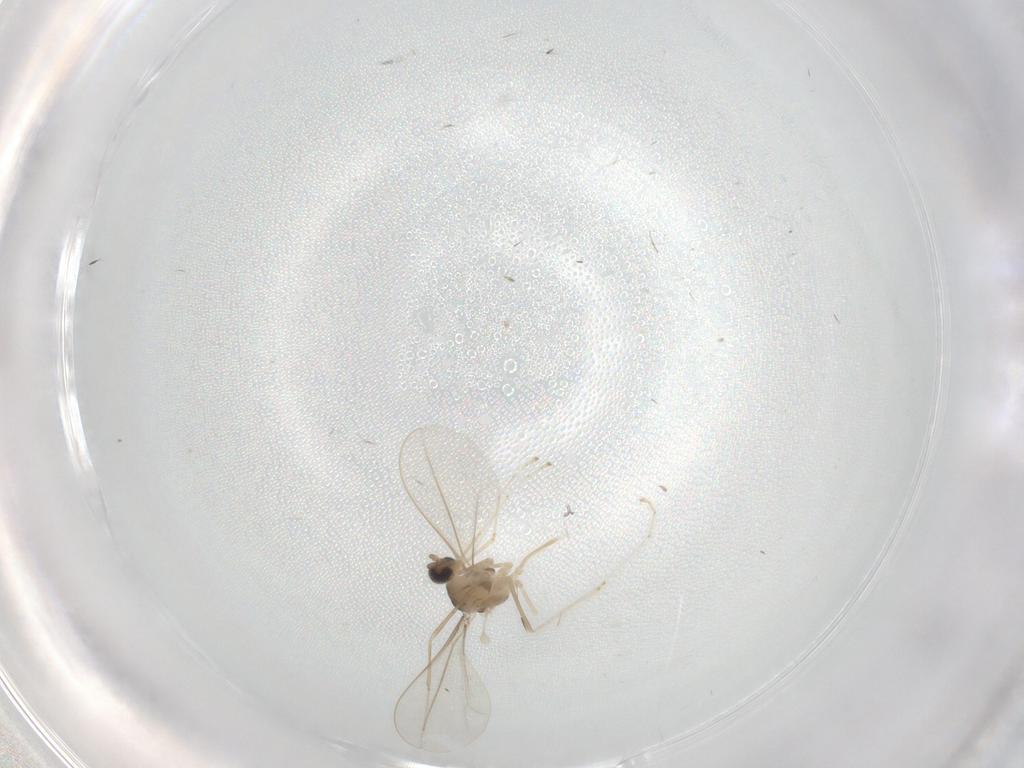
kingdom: Animalia
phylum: Arthropoda
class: Insecta
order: Diptera
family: Cecidomyiidae
